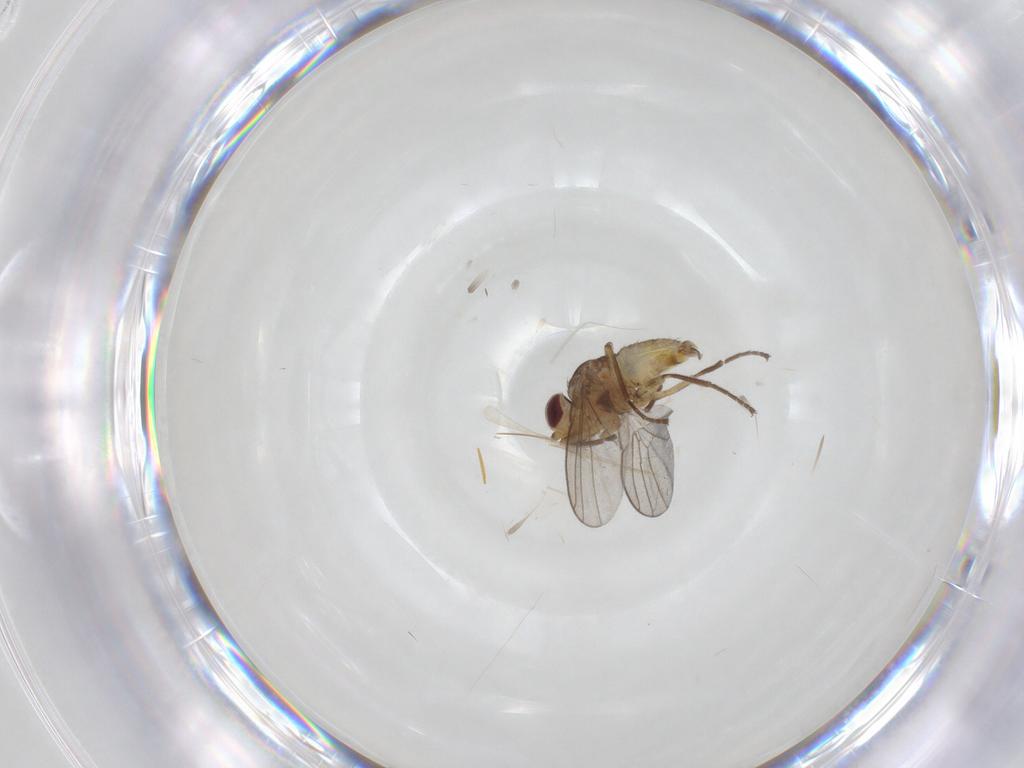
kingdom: Animalia
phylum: Arthropoda
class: Insecta
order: Diptera
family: Agromyzidae
